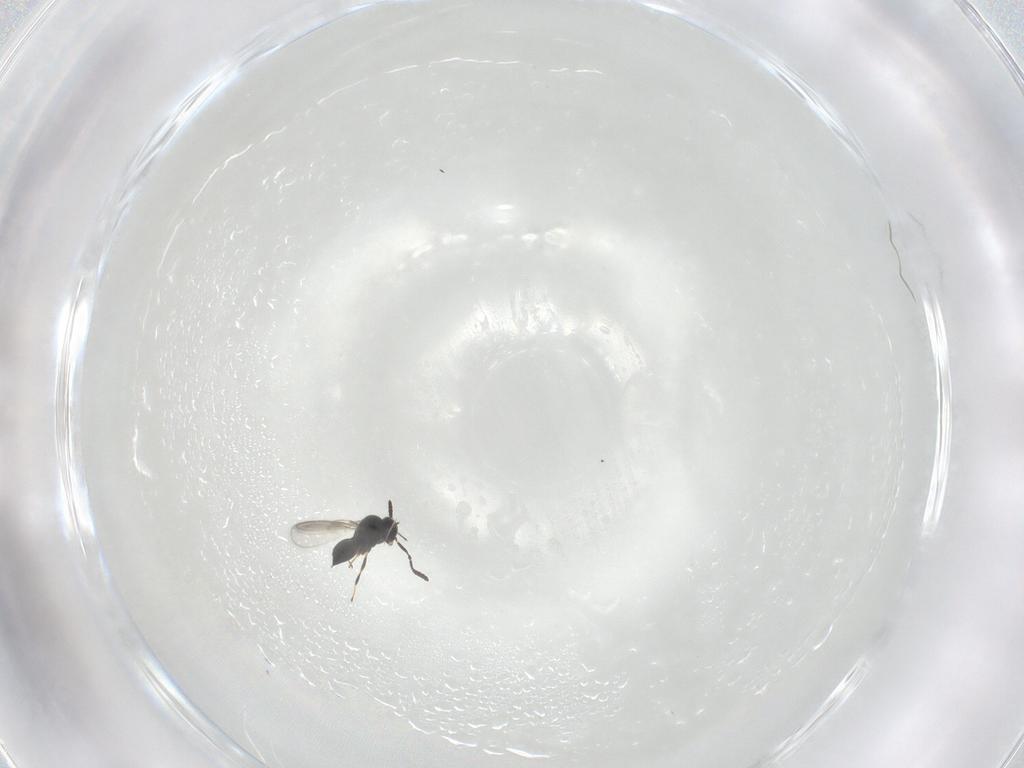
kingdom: Animalia
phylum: Arthropoda
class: Insecta
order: Hymenoptera
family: Scelionidae
